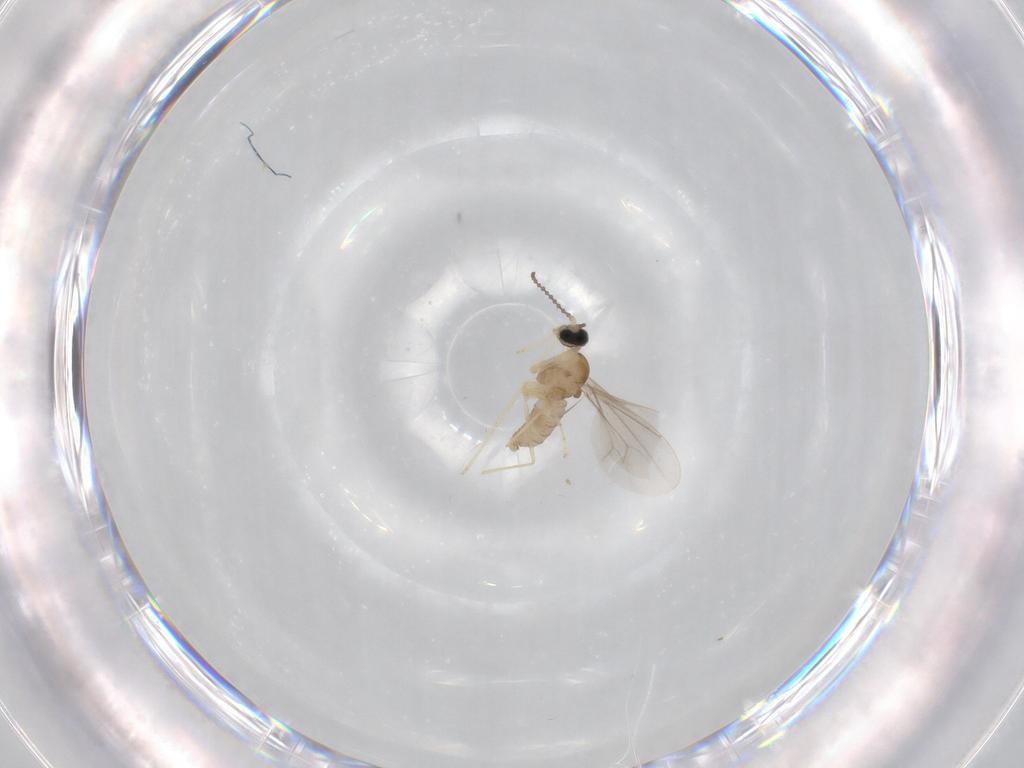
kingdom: Animalia
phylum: Arthropoda
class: Insecta
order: Diptera
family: Cecidomyiidae
